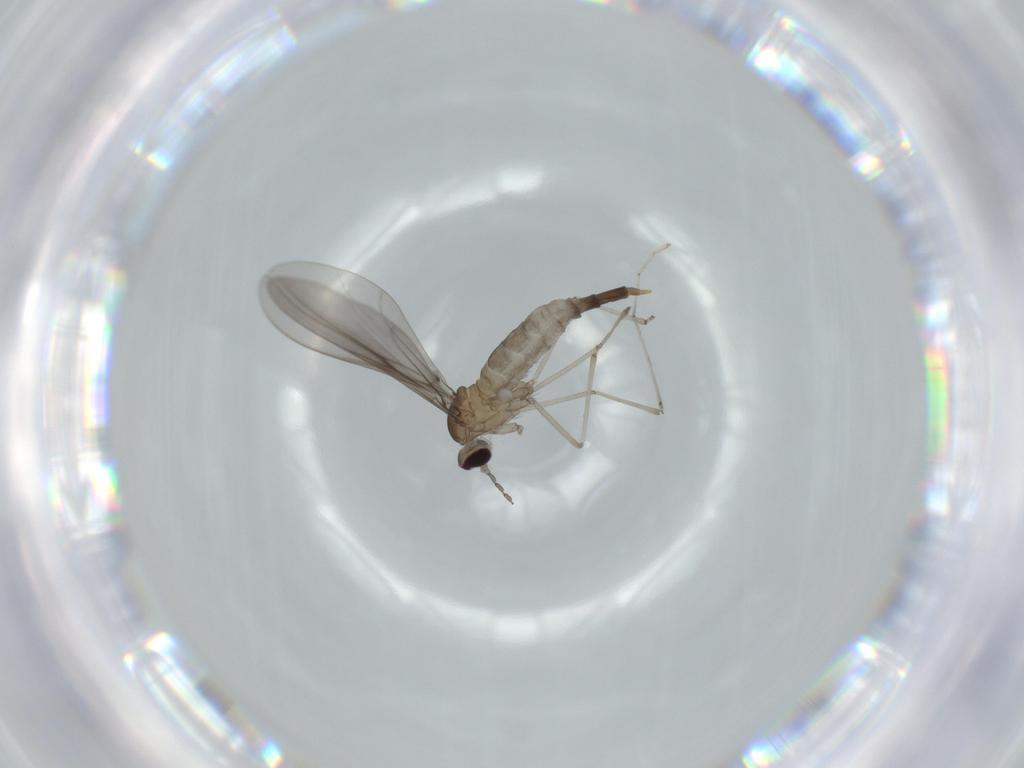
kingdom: Animalia
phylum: Arthropoda
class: Insecta
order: Diptera
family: Cecidomyiidae
